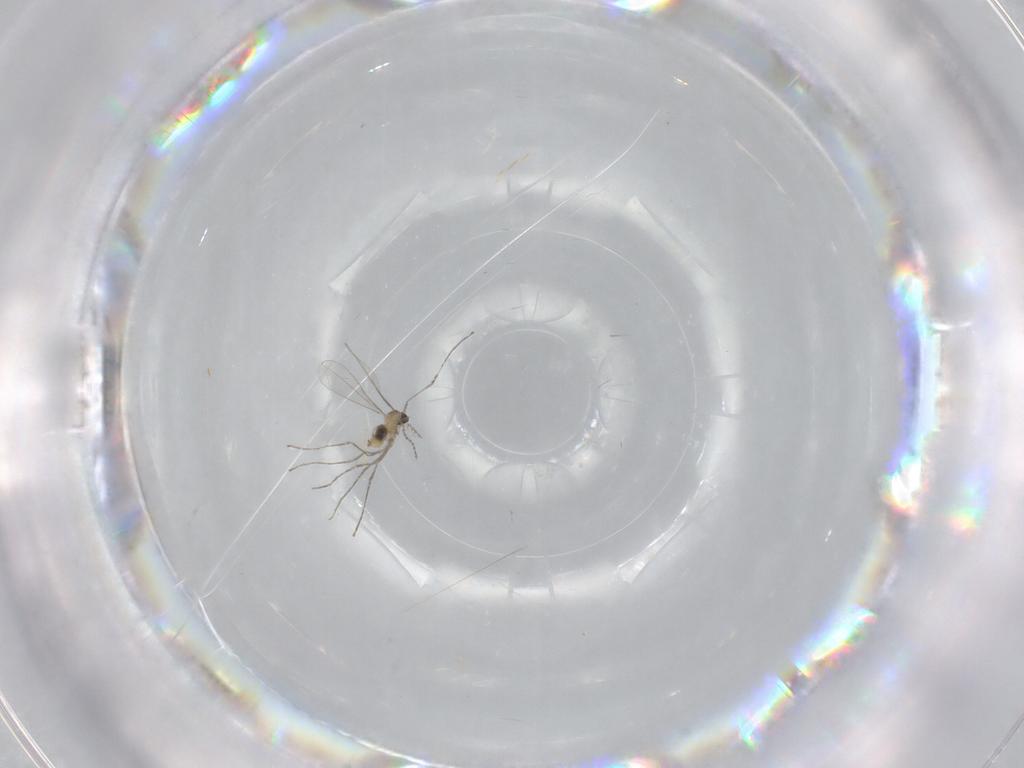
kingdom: Animalia
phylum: Arthropoda
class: Insecta
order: Diptera
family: Cecidomyiidae
